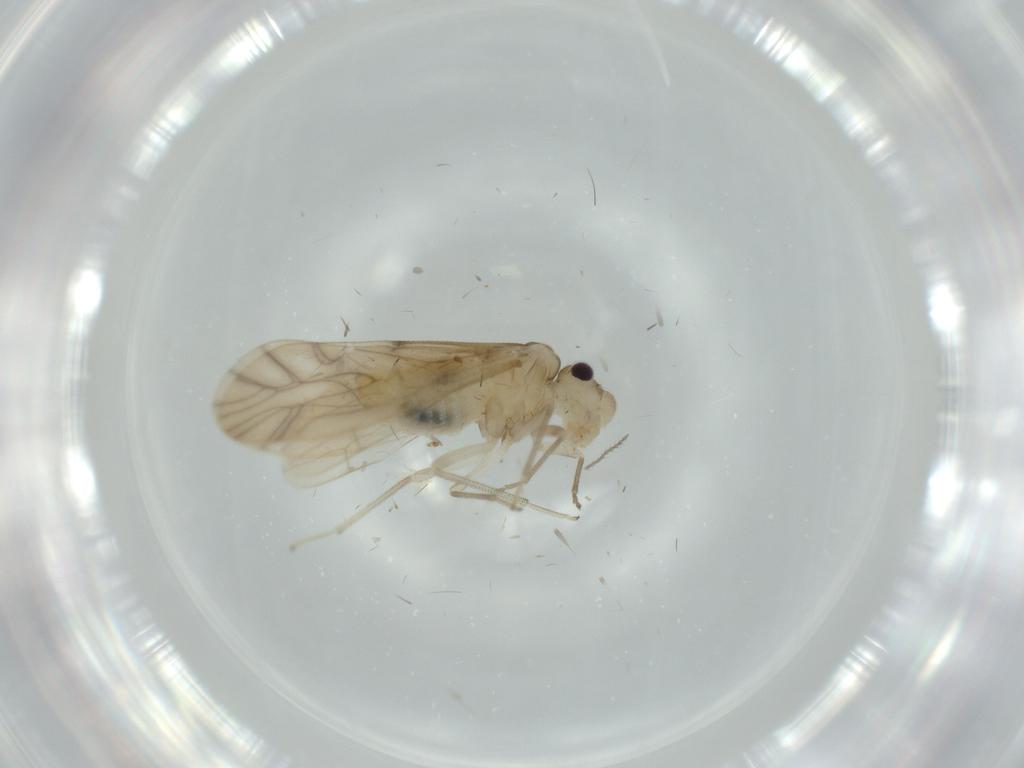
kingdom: Animalia
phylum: Arthropoda
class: Insecta
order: Psocodea
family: Caeciliusidae
